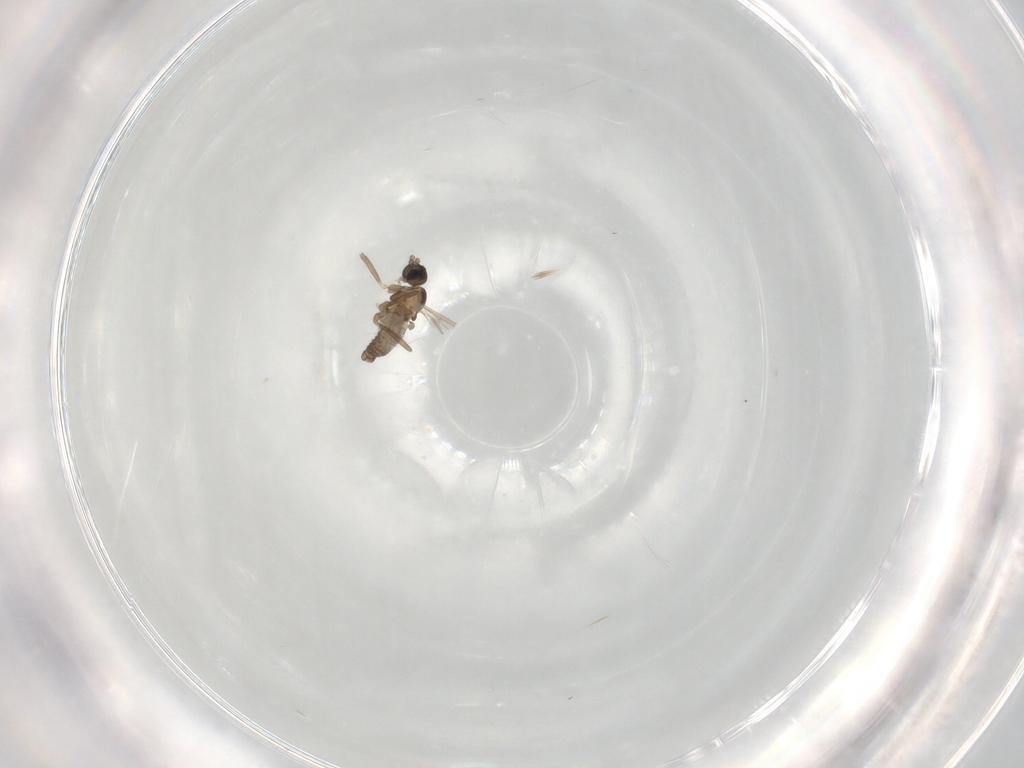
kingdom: Animalia
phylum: Arthropoda
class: Insecta
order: Diptera
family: Cecidomyiidae
